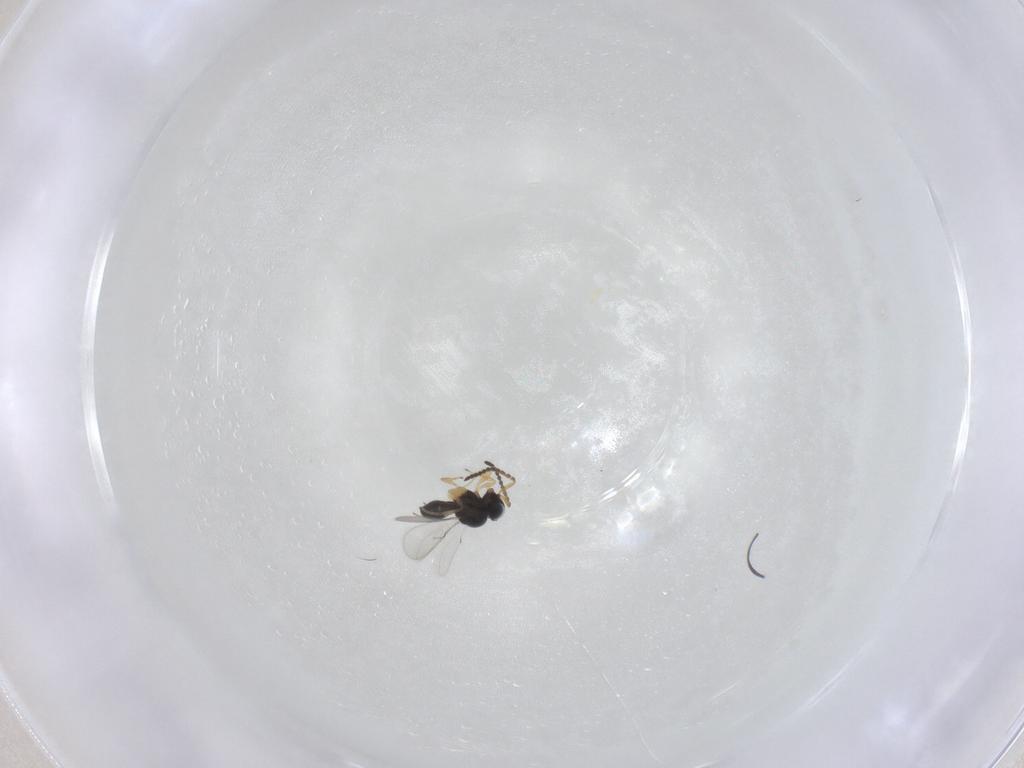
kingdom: Animalia
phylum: Arthropoda
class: Insecta
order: Hymenoptera
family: Scelionidae
